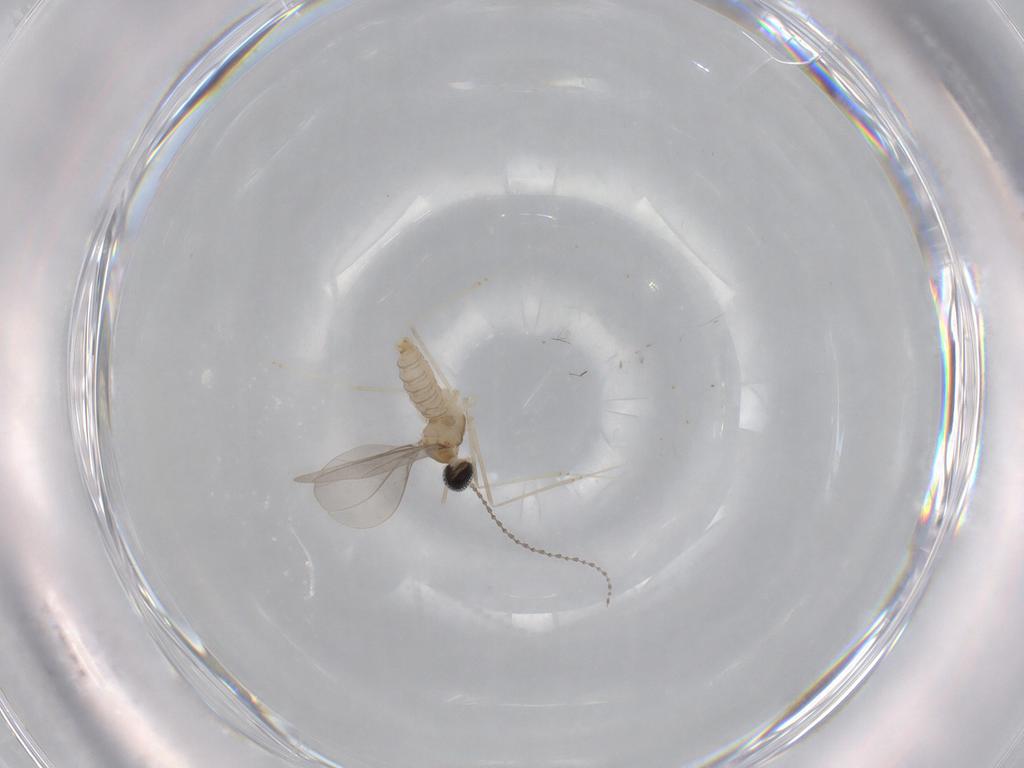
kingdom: Animalia
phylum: Arthropoda
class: Insecta
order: Diptera
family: Cecidomyiidae
